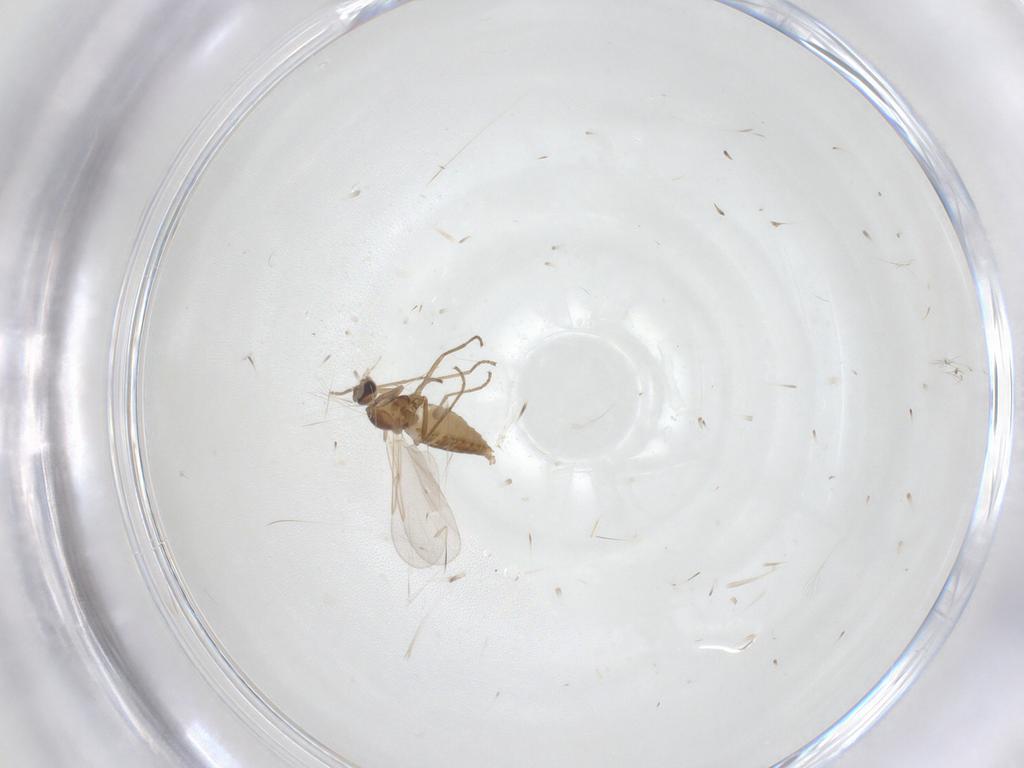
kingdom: Animalia
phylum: Arthropoda
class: Insecta
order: Diptera
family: Cecidomyiidae
